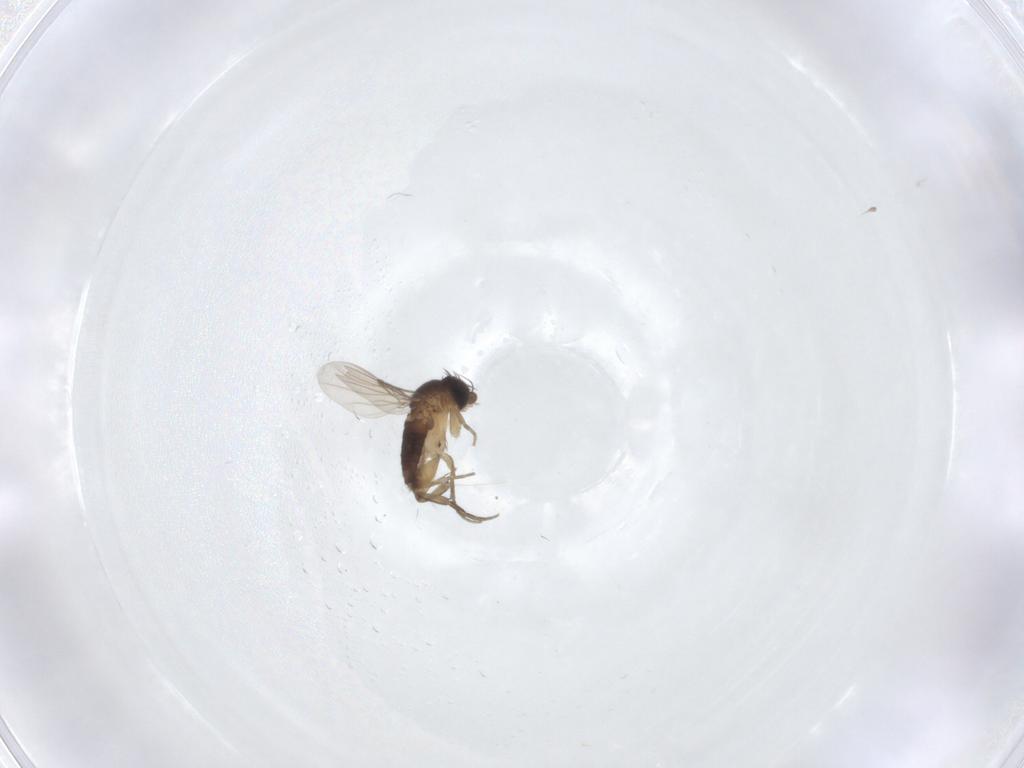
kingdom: Animalia
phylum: Arthropoda
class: Insecta
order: Diptera
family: Phoridae
